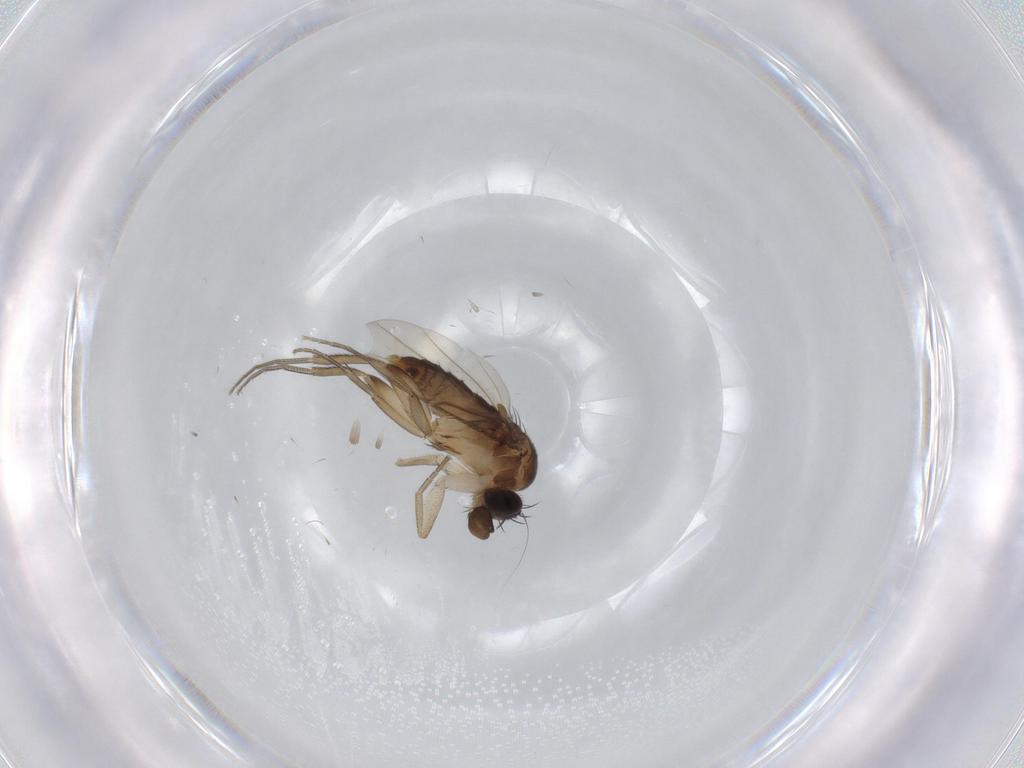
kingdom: Animalia
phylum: Arthropoda
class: Insecta
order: Diptera
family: Phoridae
